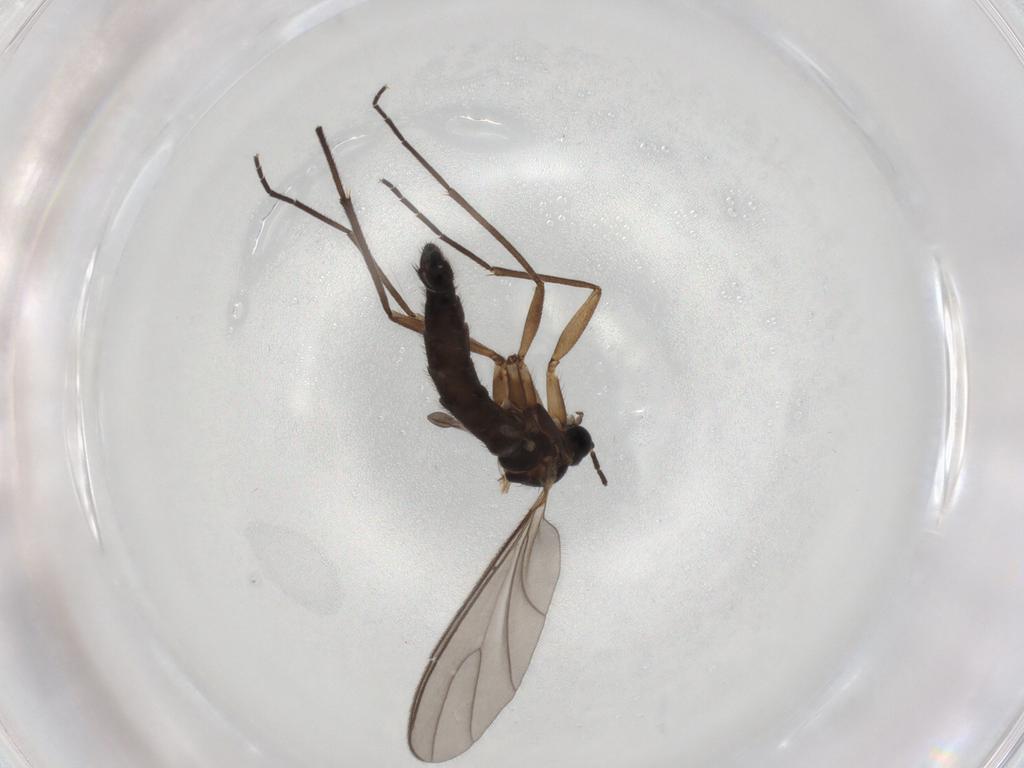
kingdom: Animalia
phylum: Arthropoda
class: Insecta
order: Diptera
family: Sciaridae
